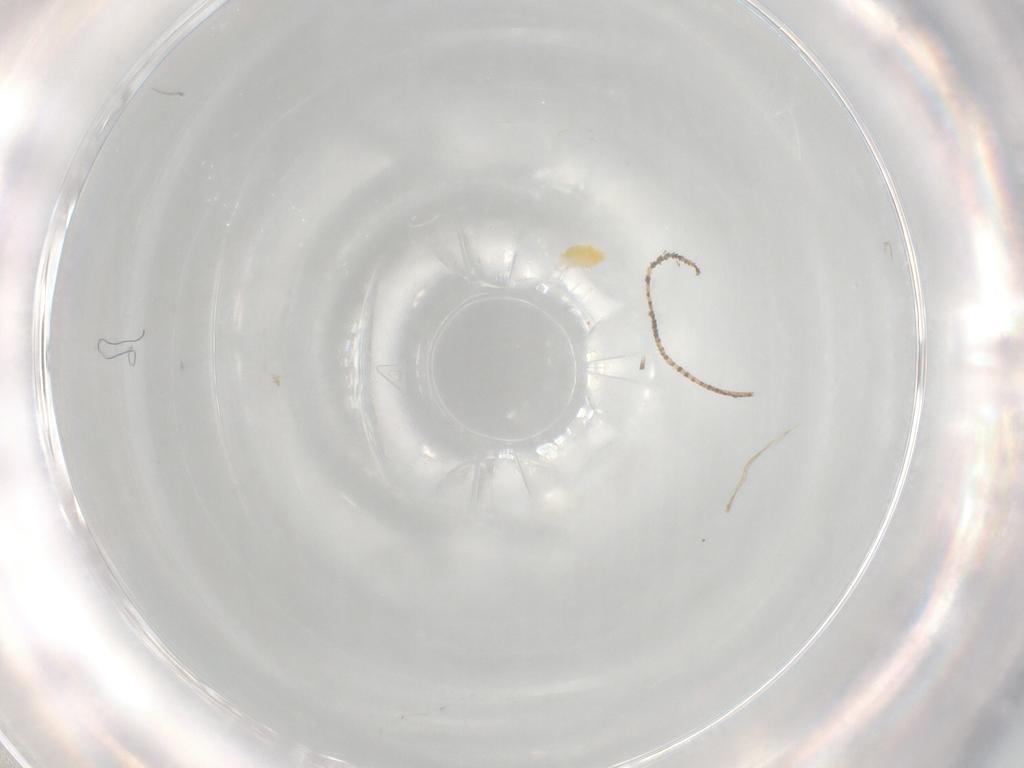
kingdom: Animalia
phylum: Arthropoda
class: Arachnida
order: Trombidiformes
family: Eupodidae
